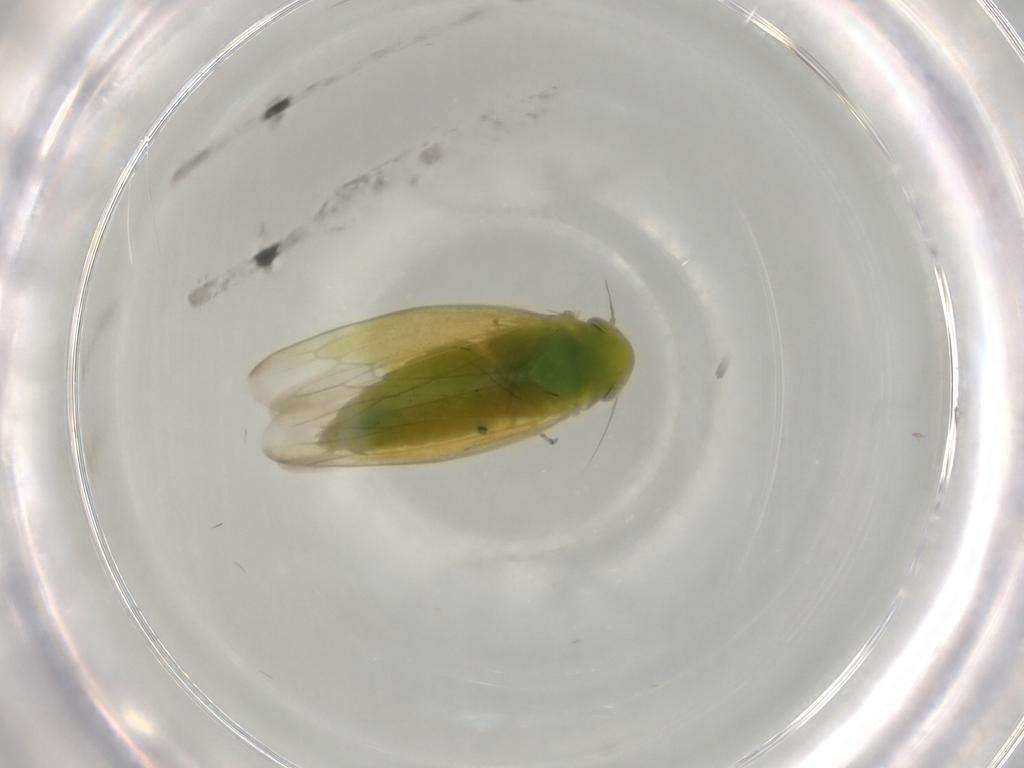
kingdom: Animalia
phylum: Arthropoda
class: Insecta
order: Hemiptera
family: Cicadellidae
